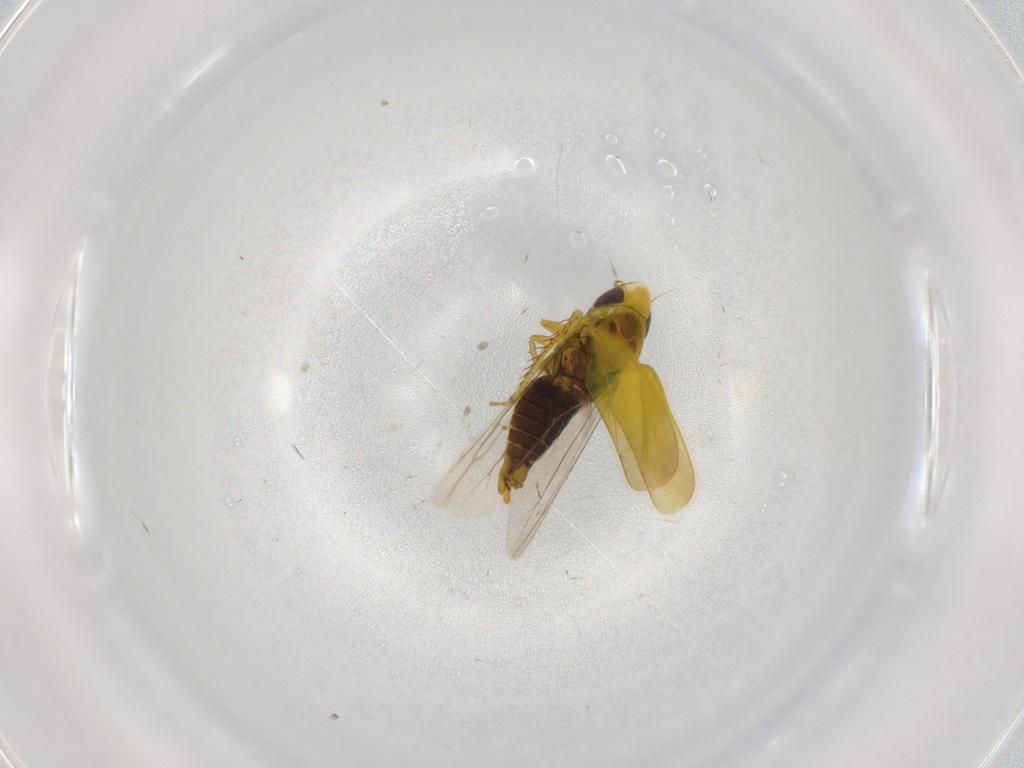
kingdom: Animalia
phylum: Arthropoda
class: Insecta
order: Hemiptera
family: Cicadellidae
